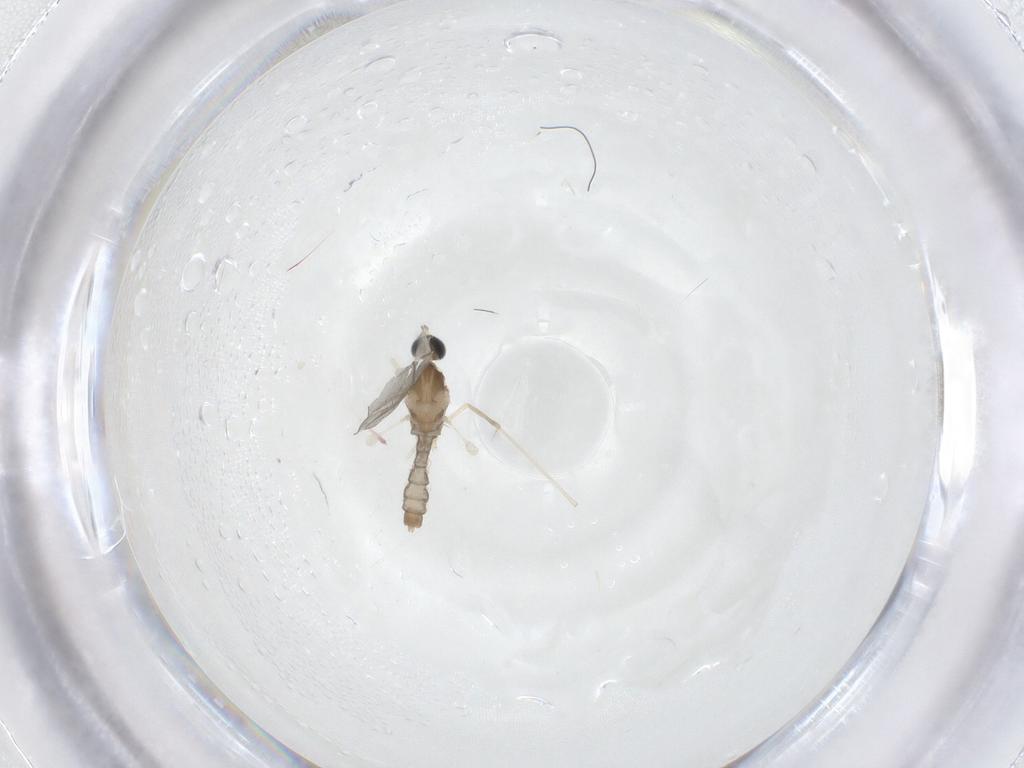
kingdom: Animalia
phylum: Arthropoda
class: Insecta
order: Diptera
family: Cecidomyiidae
